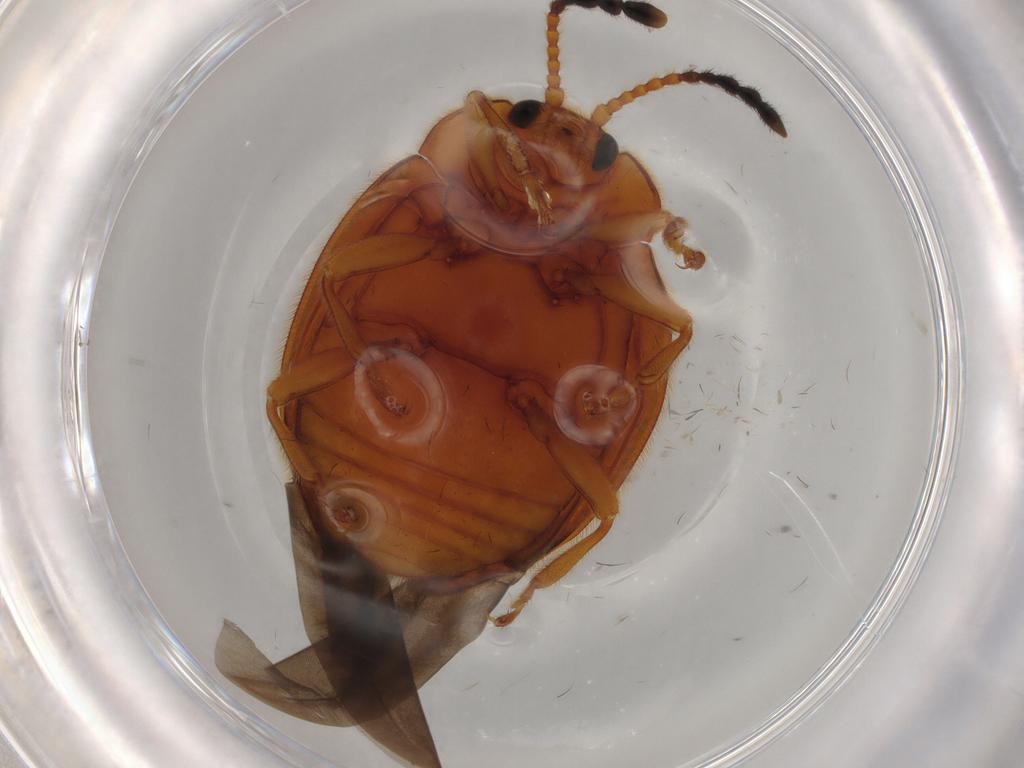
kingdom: Animalia
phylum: Arthropoda
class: Insecta
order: Coleoptera
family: Endomychidae
